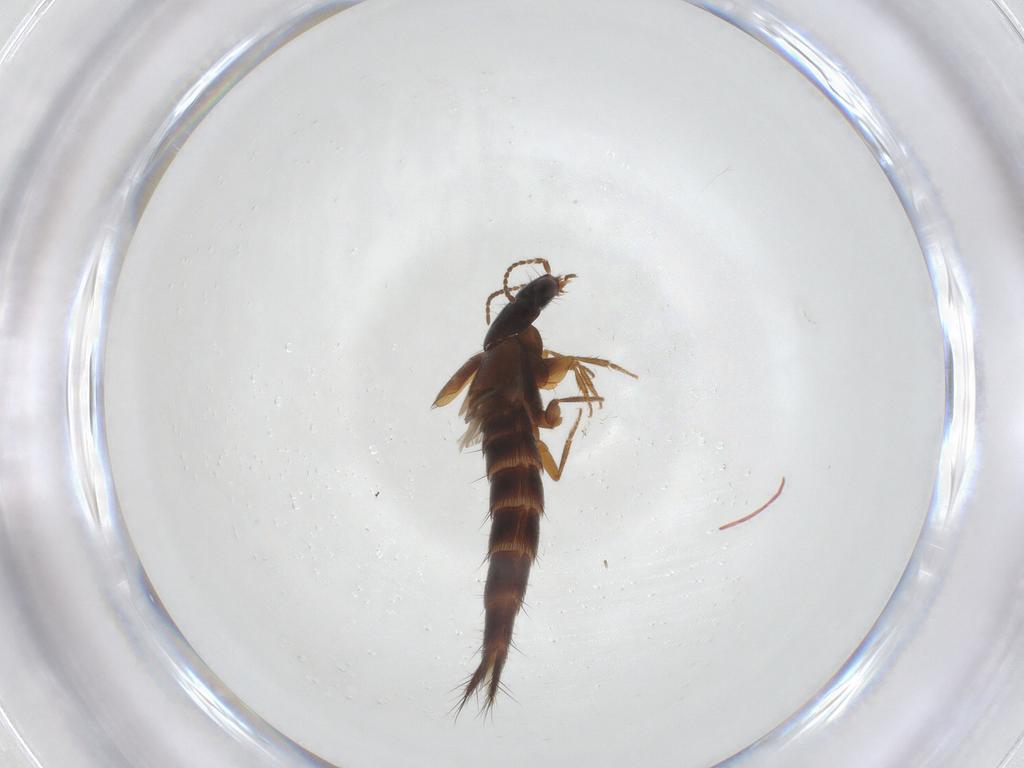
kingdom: Animalia
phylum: Arthropoda
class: Insecta
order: Coleoptera
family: Staphylinidae
